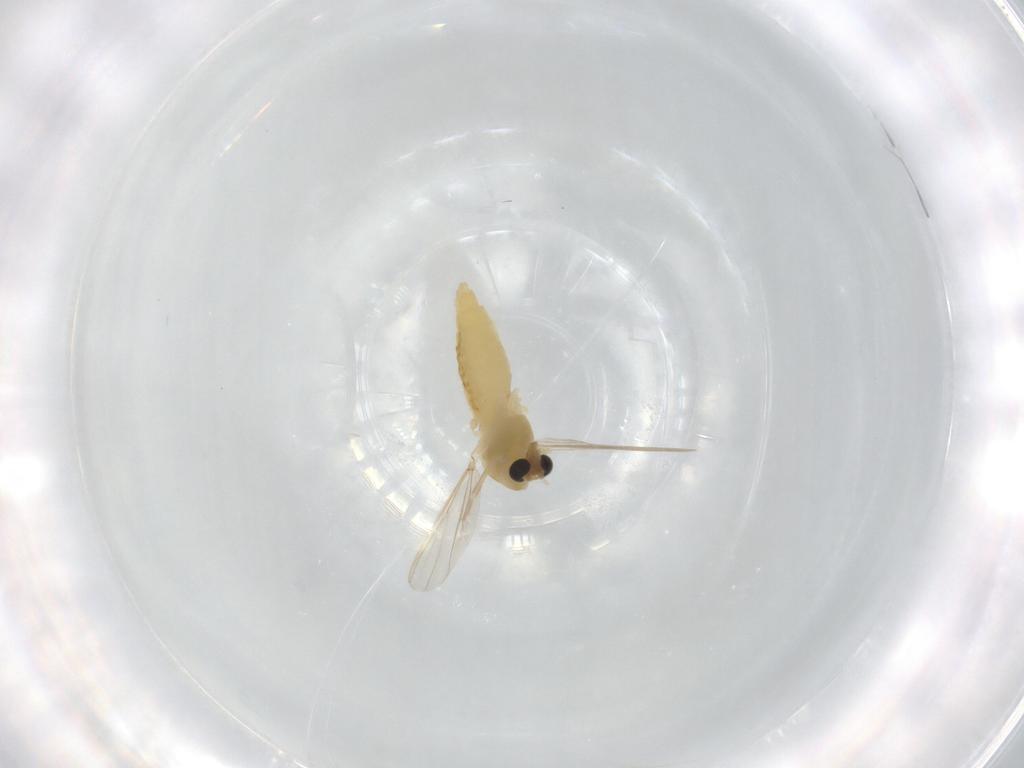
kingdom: Animalia
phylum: Arthropoda
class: Insecta
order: Diptera
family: Chironomidae
